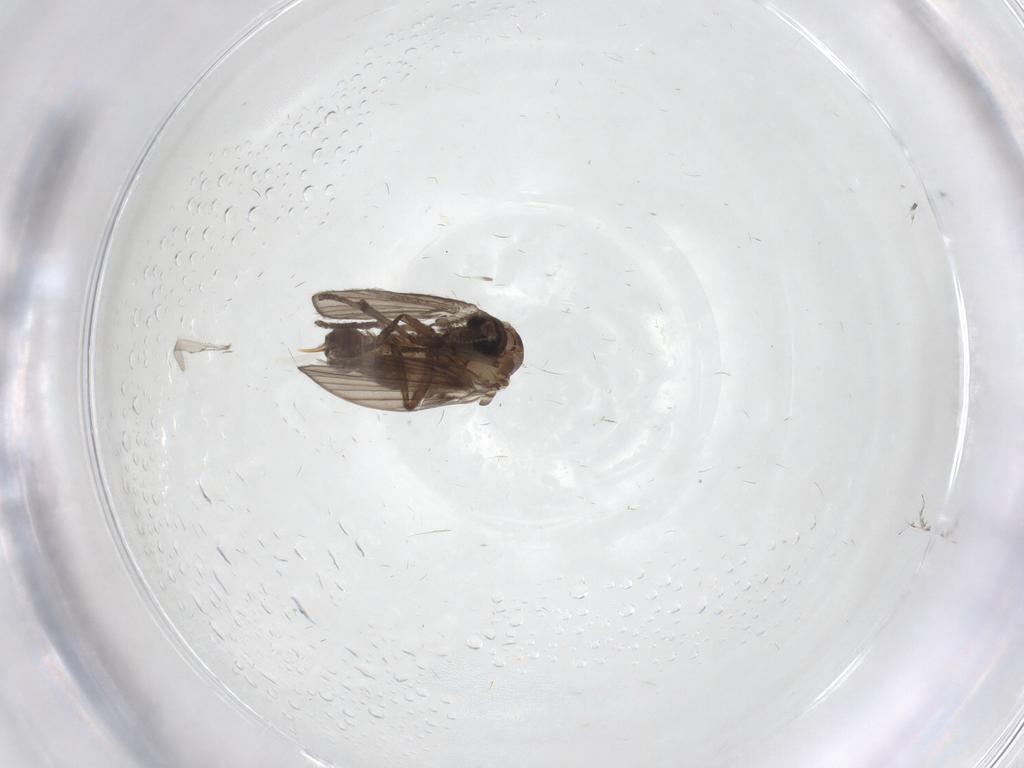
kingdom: Animalia
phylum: Arthropoda
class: Insecta
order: Diptera
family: Psychodidae
